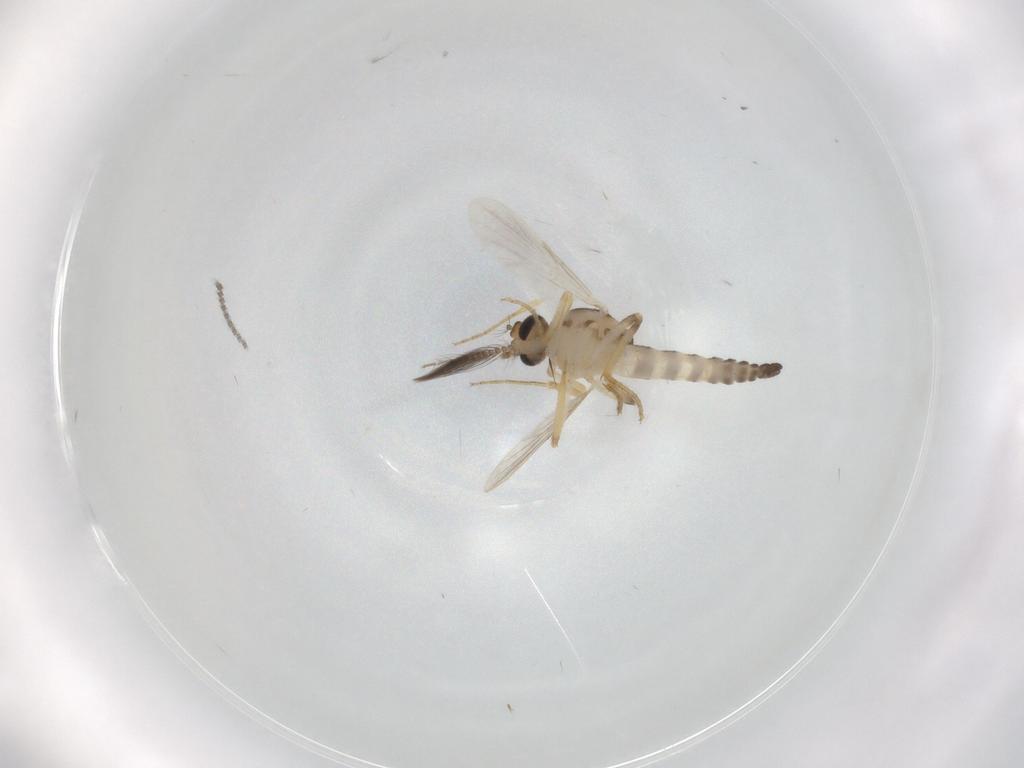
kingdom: Animalia
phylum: Arthropoda
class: Insecta
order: Diptera
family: Ceratopogonidae
